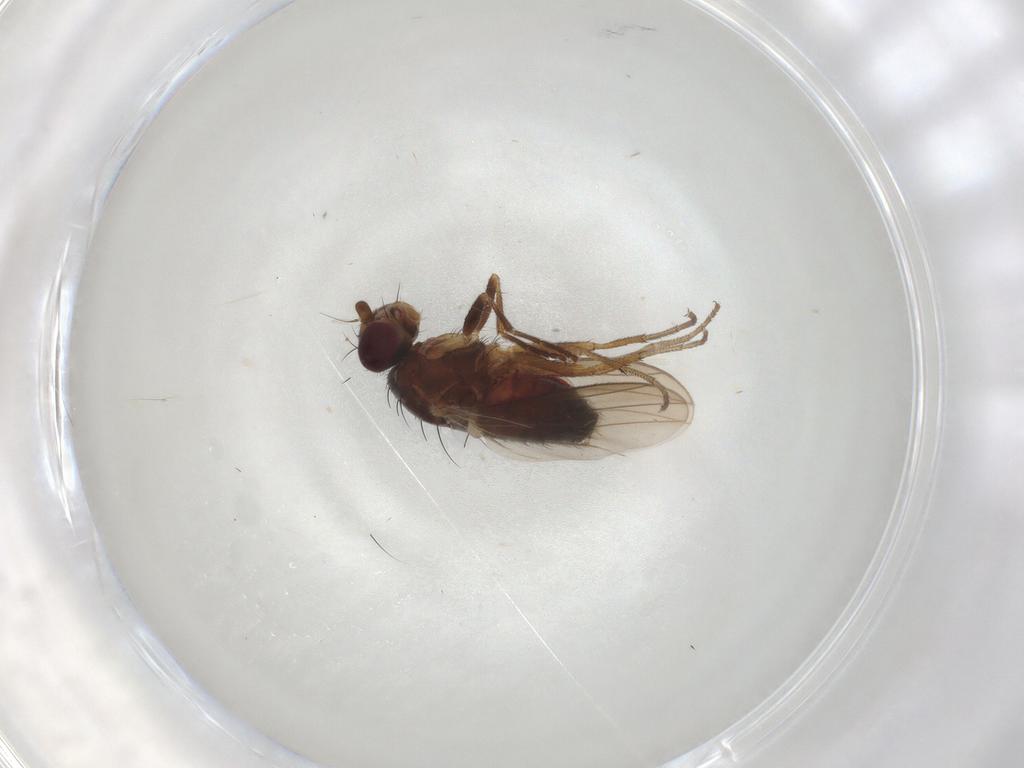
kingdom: Animalia
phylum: Arthropoda
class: Insecta
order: Diptera
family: Heleomyzidae
